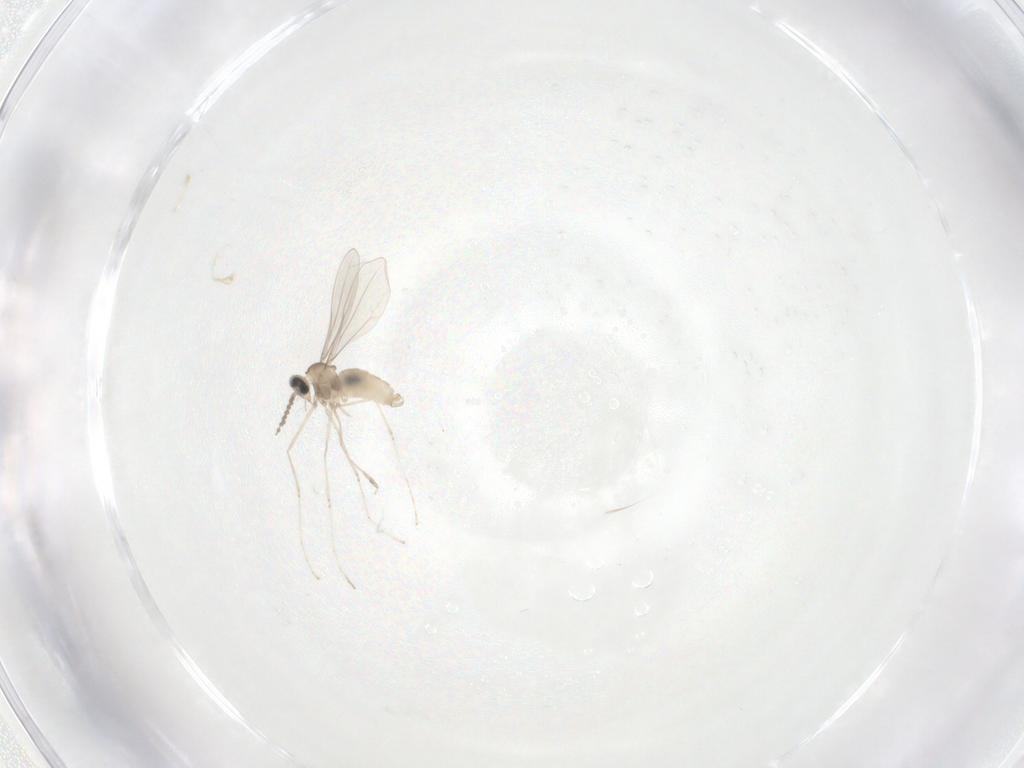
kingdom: Animalia
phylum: Arthropoda
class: Insecta
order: Diptera
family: Cecidomyiidae
